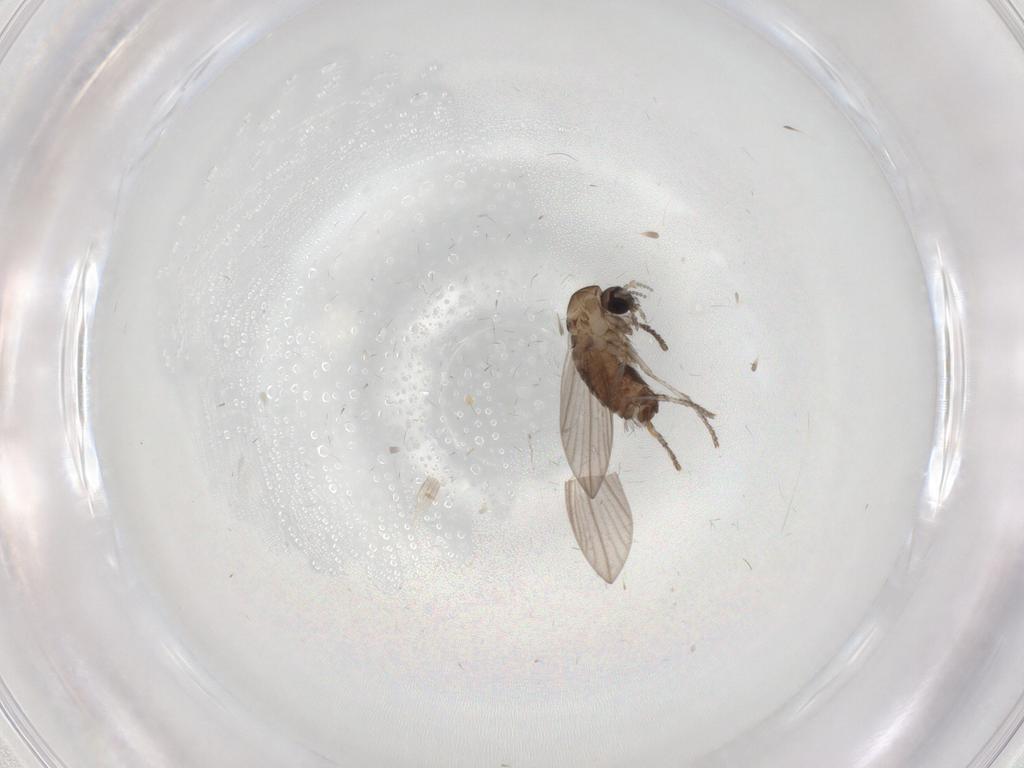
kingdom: Animalia
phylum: Arthropoda
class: Insecta
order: Diptera
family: Psychodidae
